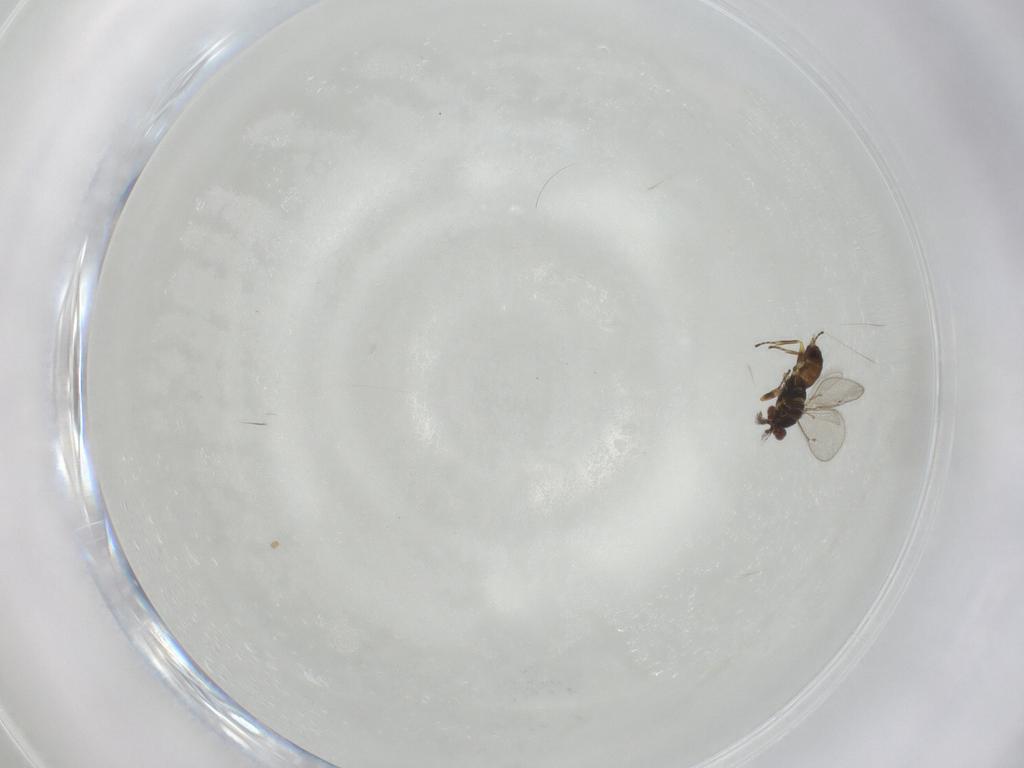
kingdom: Animalia
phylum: Arthropoda
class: Insecta
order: Hymenoptera
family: Eulophidae
